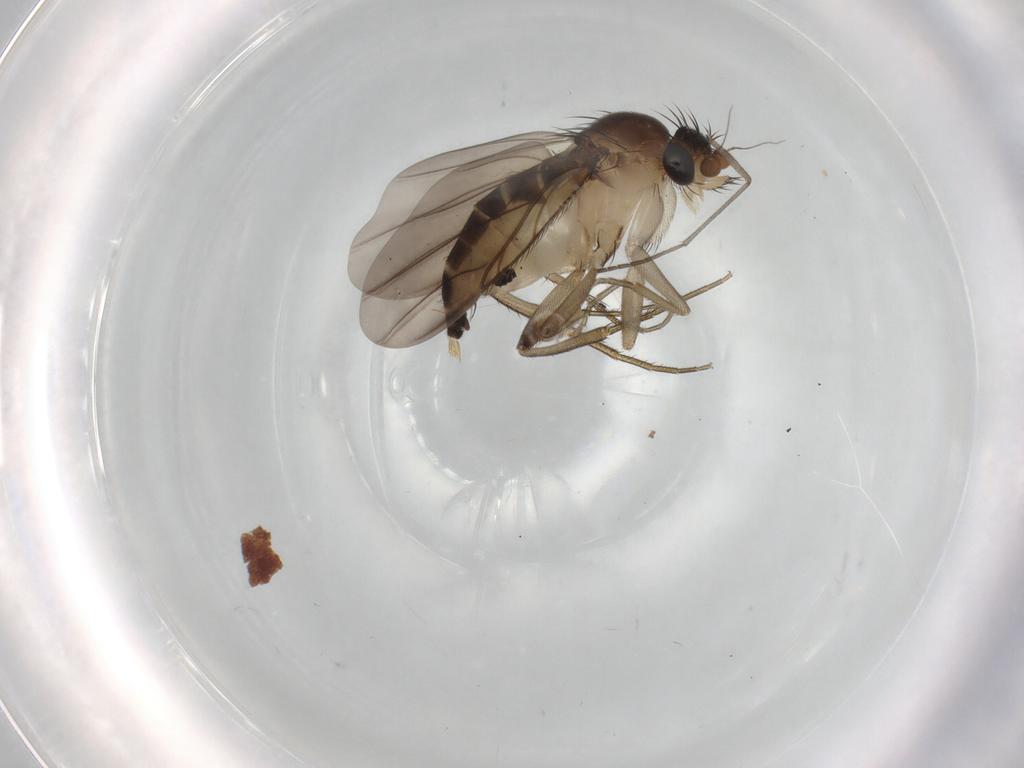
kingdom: Animalia
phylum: Arthropoda
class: Insecta
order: Diptera
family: Phoridae
